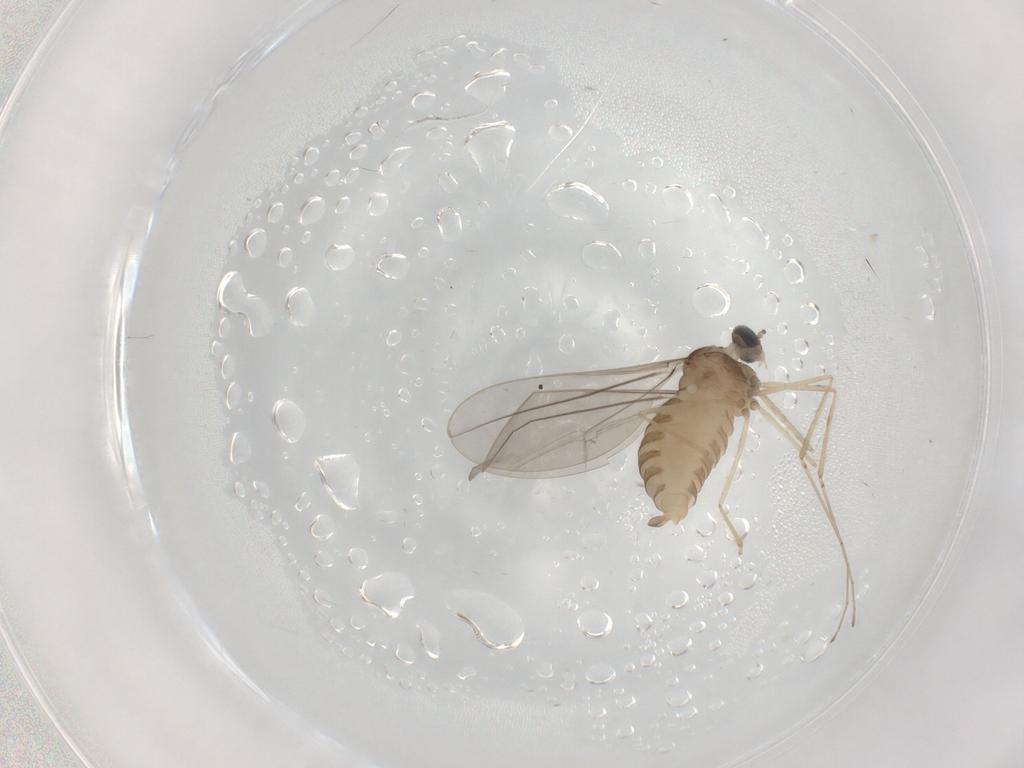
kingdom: Animalia
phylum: Arthropoda
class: Insecta
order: Diptera
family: Cecidomyiidae
